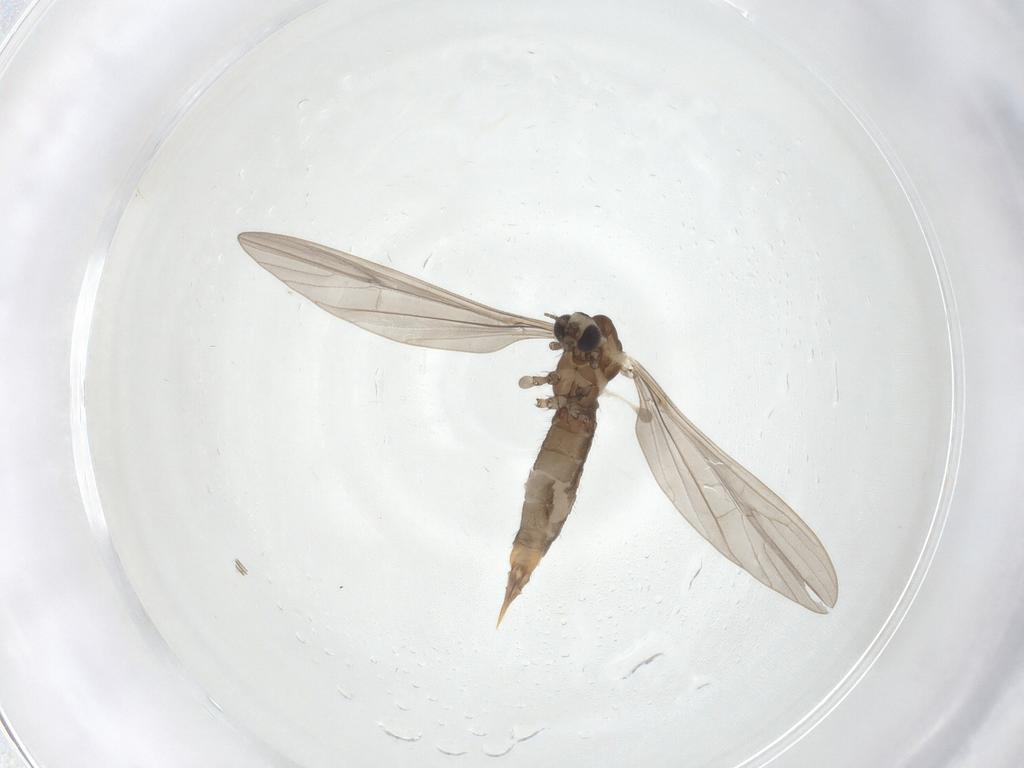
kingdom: Animalia
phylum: Arthropoda
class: Insecta
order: Diptera
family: Limoniidae
